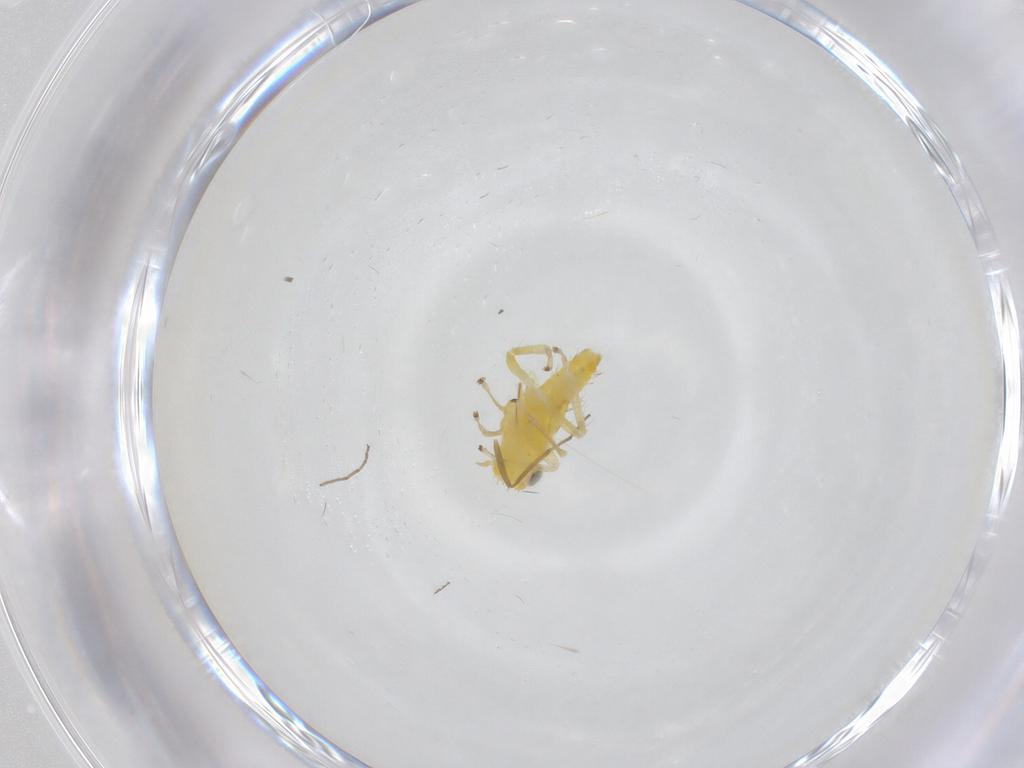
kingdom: Animalia
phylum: Arthropoda
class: Insecta
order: Hemiptera
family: Cicadellidae
